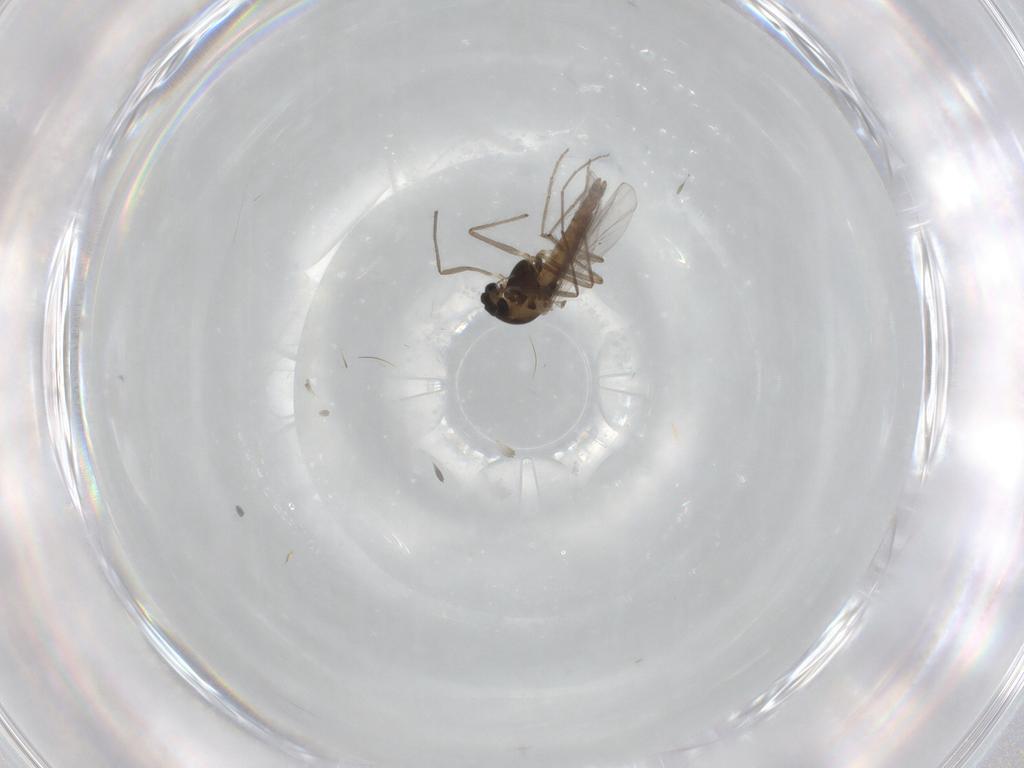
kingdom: Animalia
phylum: Arthropoda
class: Insecta
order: Diptera
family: Chironomidae
